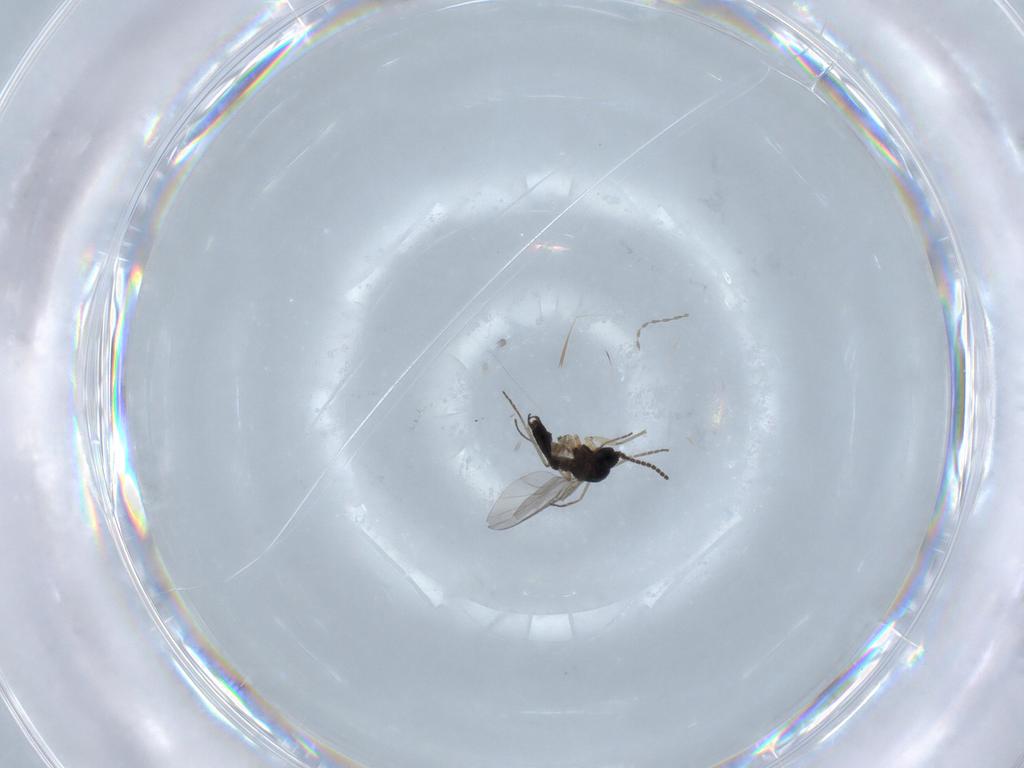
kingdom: Animalia
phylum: Arthropoda
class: Insecta
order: Diptera
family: Sciaridae
